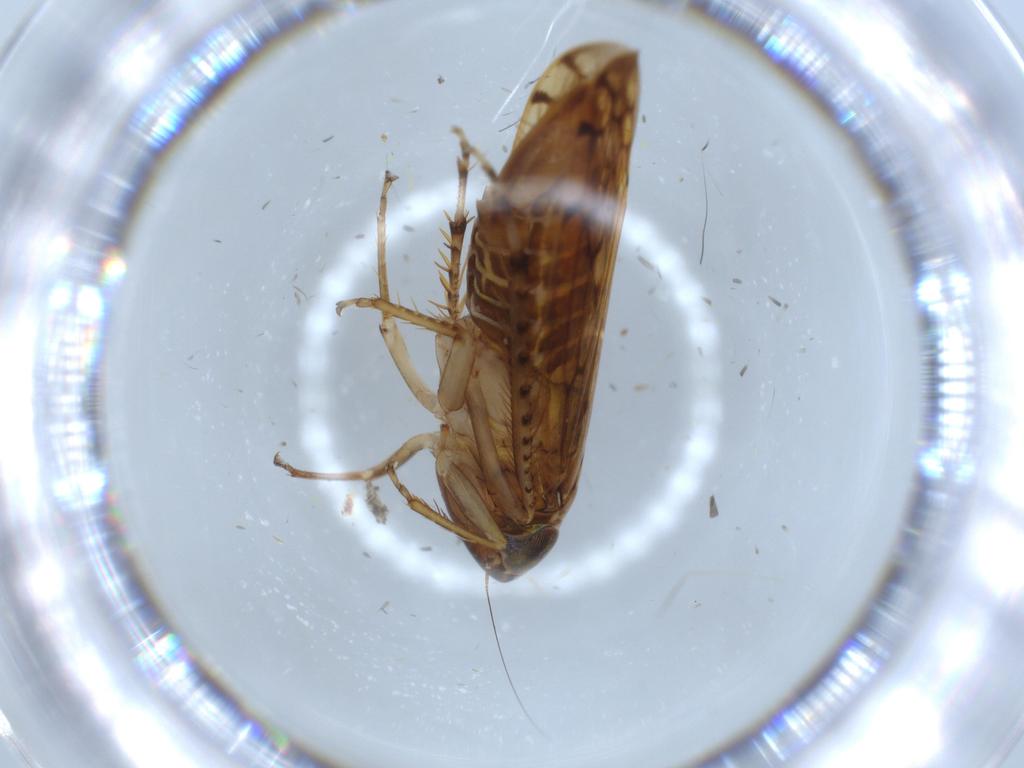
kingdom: Animalia
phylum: Arthropoda
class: Insecta
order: Hemiptera
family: Cicadellidae
